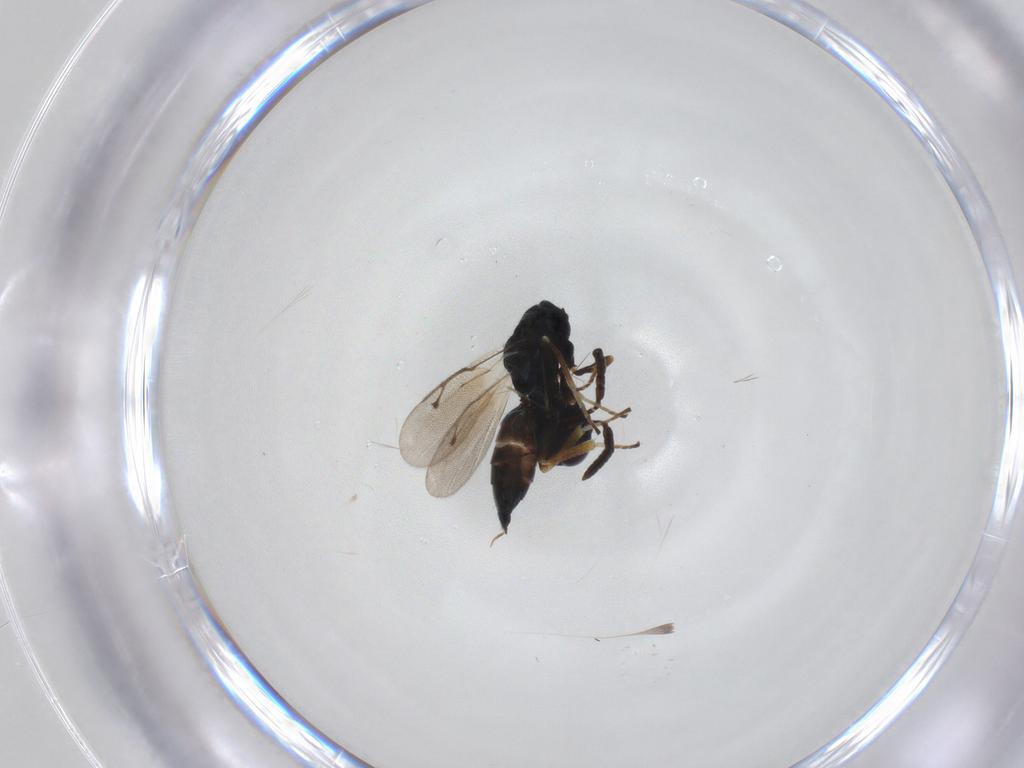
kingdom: Animalia
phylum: Arthropoda
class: Insecta
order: Hymenoptera
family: Pteromalidae
